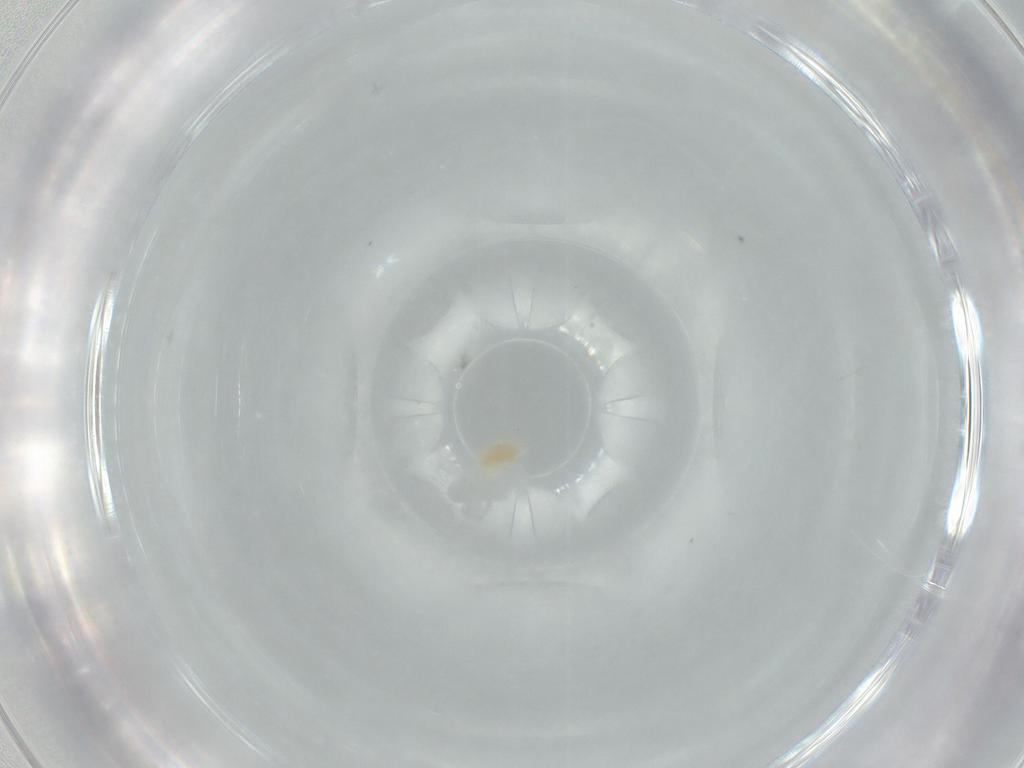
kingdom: Animalia
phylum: Arthropoda
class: Arachnida
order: Trombidiformes
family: Eupodidae
